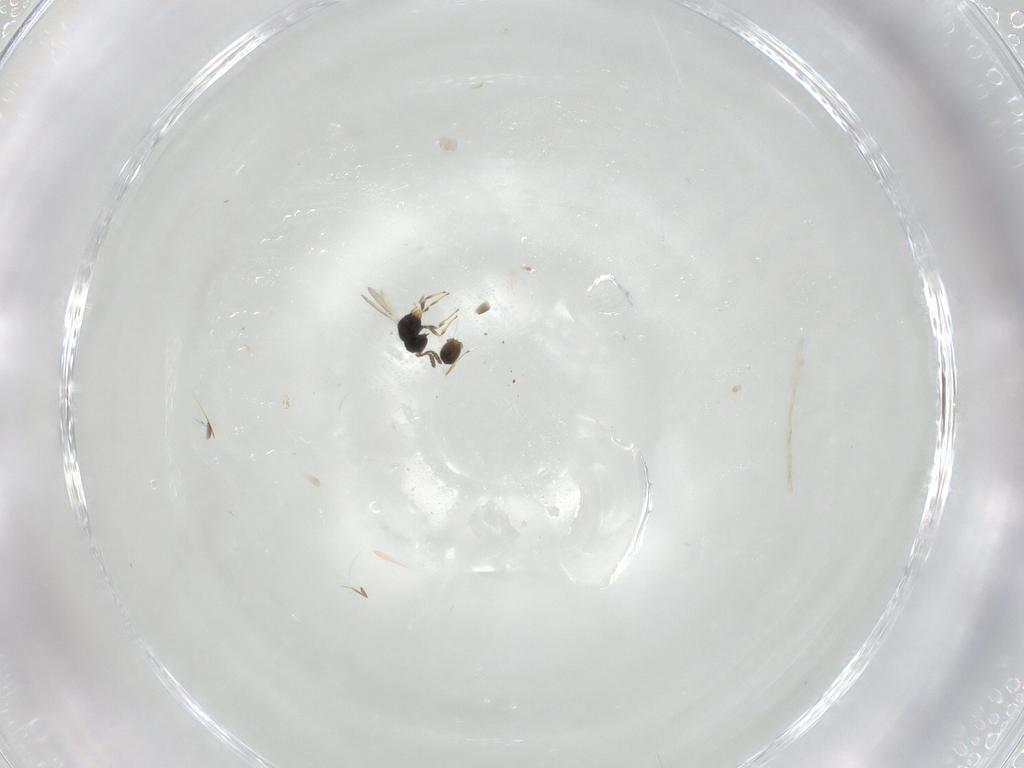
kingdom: Animalia
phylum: Arthropoda
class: Insecta
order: Hymenoptera
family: Scelionidae
